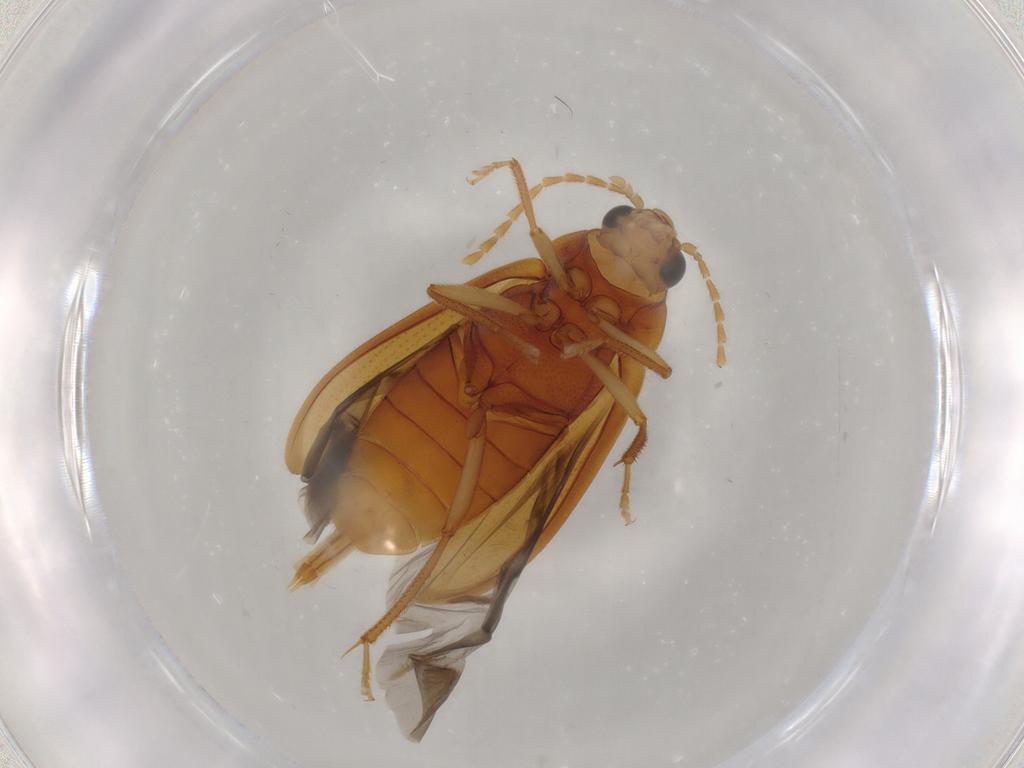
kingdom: Animalia
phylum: Arthropoda
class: Insecta
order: Coleoptera
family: Ptilodactylidae
